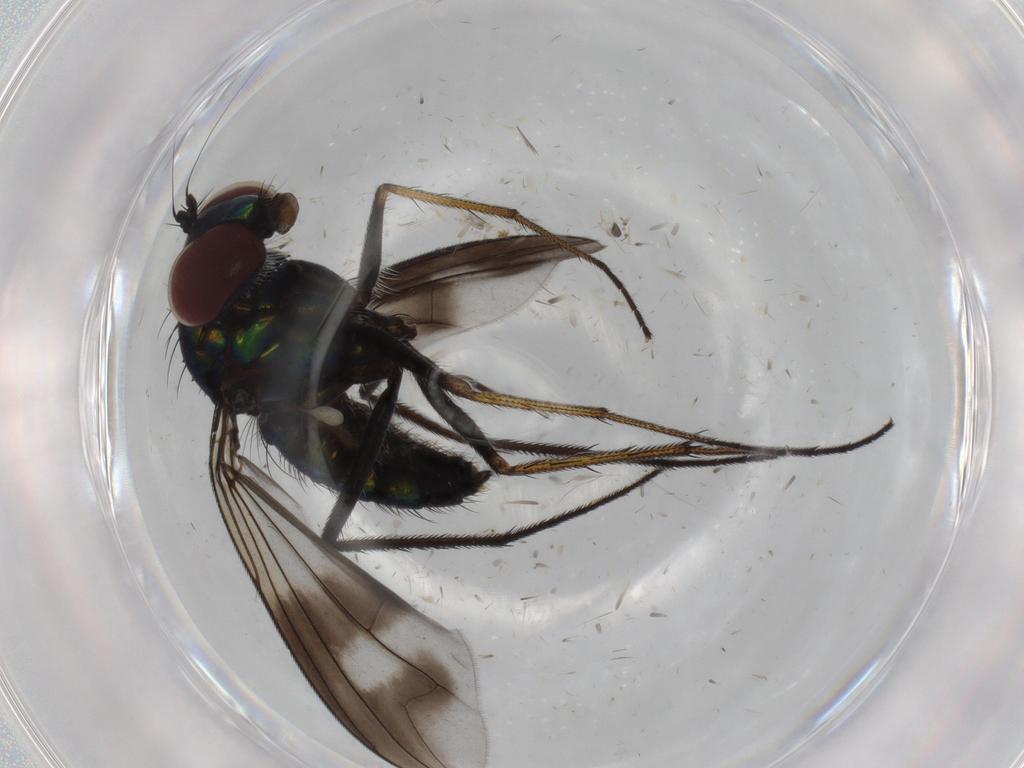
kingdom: Animalia
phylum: Arthropoda
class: Insecta
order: Diptera
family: Dolichopodidae
